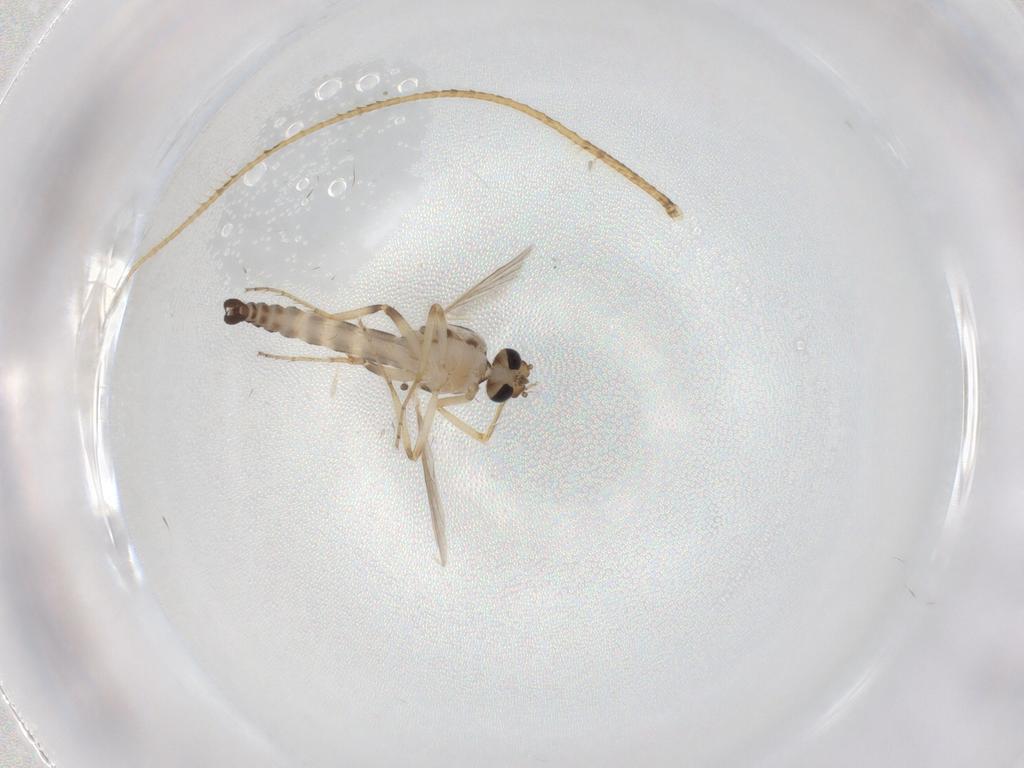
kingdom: Animalia
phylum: Arthropoda
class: Insecta
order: Diptera
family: Ceratopogonidae
